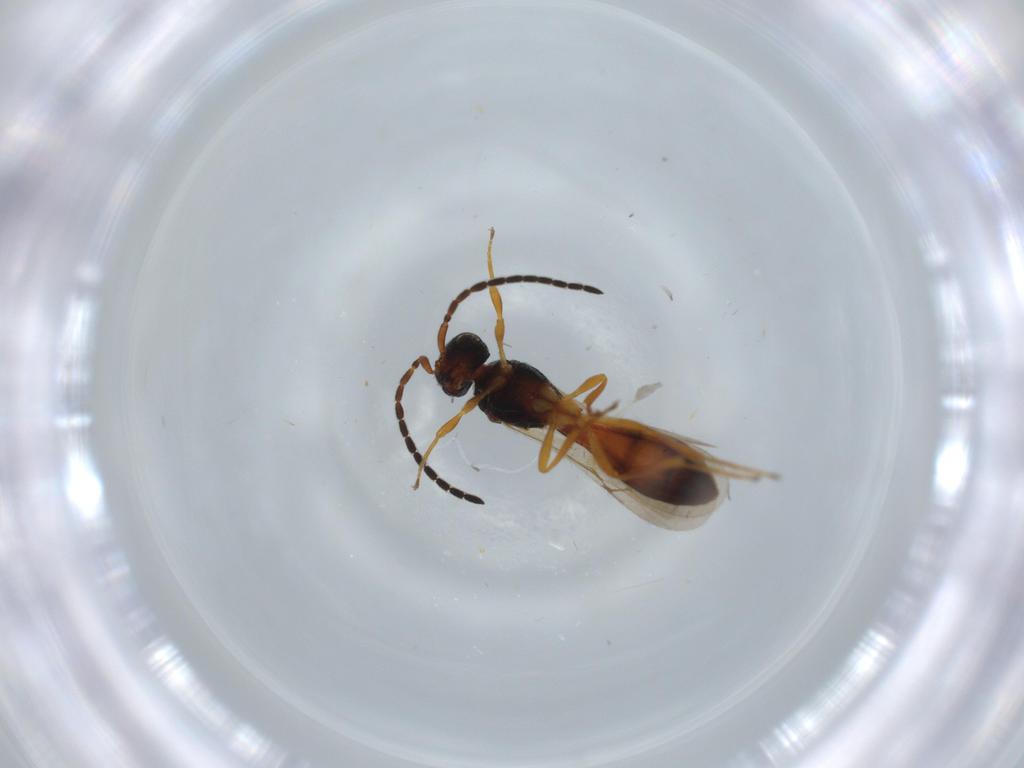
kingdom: Animalia
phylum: Arthropoda
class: Insecta
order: Hymenoptera
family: Scelionidae
